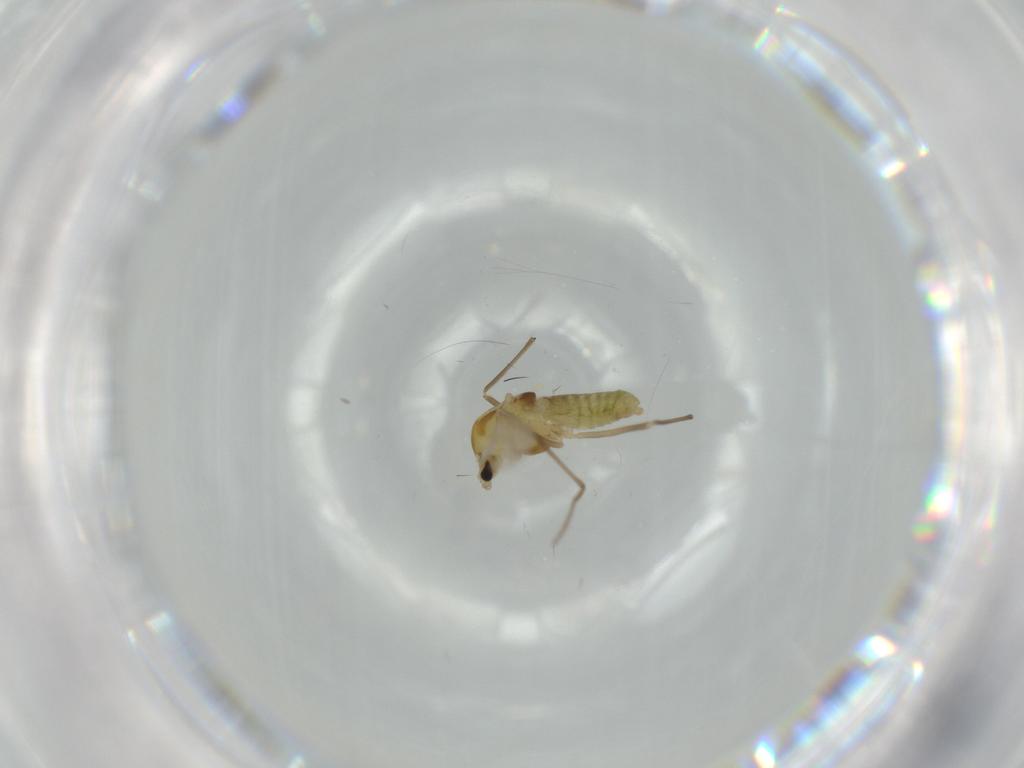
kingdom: Animalia
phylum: Arthropoda
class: Insecta
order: Diptera
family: Chironomidae
